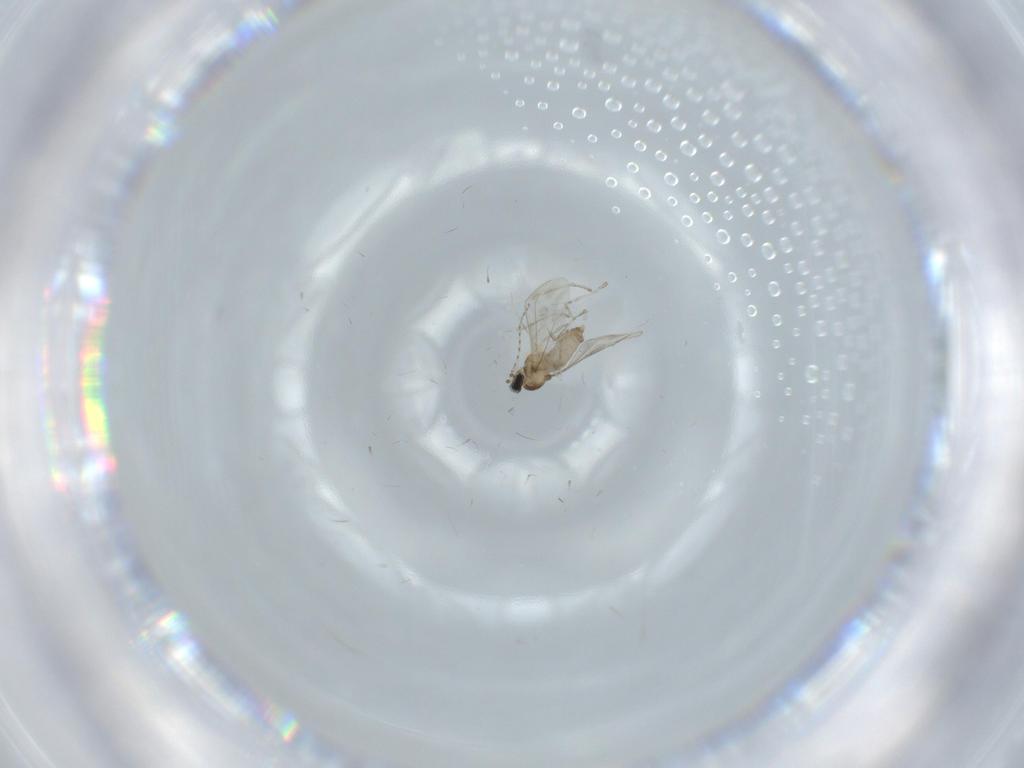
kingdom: Animalia
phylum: Arthropoda
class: Insecta
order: Diptera
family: Cecidomyiidae
